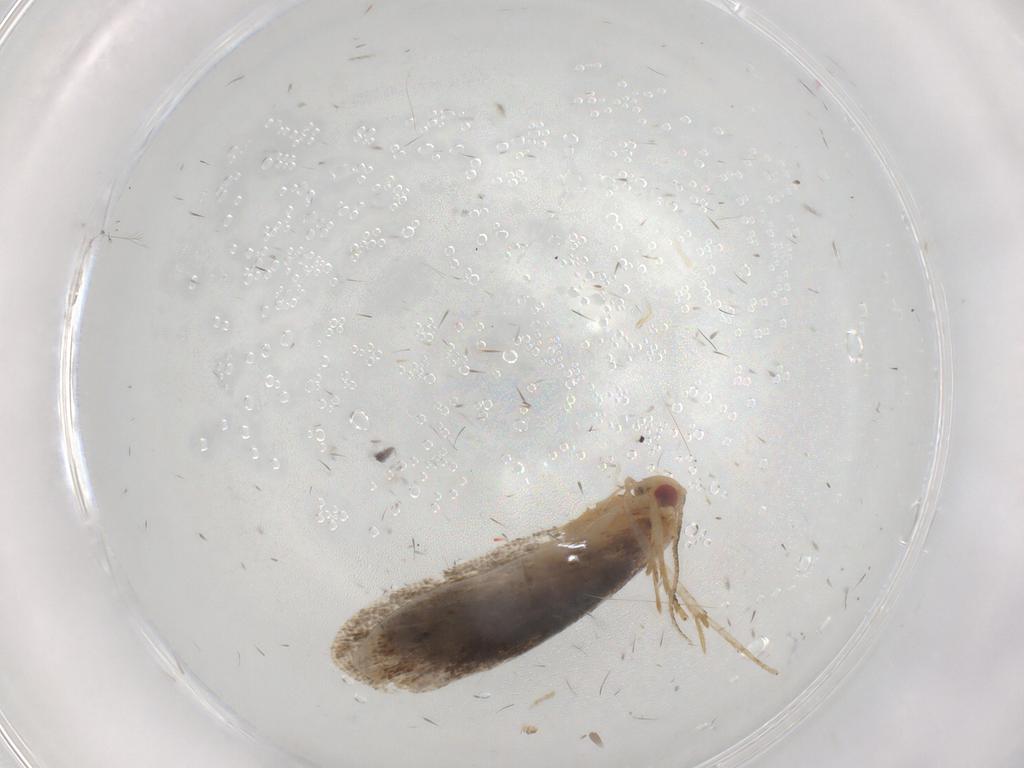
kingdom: Animalia
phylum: Arthropoda
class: Insecta
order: Lepidoptera
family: Gelechiidae
